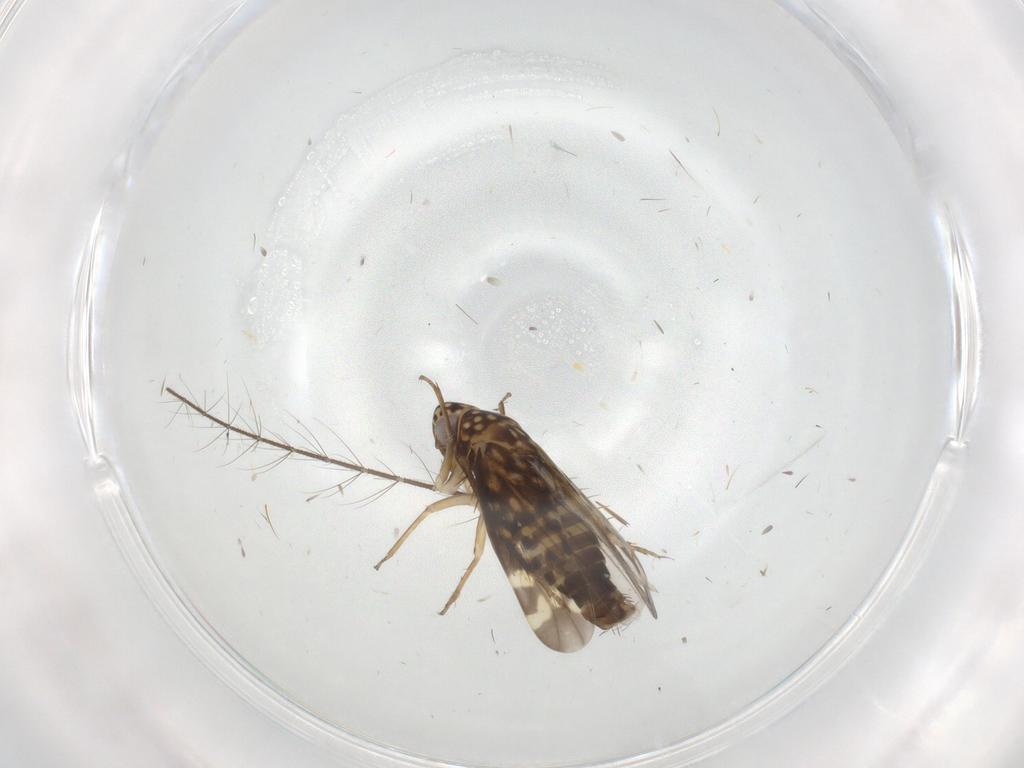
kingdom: Animalia
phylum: Arthropoda
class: Insecta
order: Hemiptera
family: Cicadellidae
